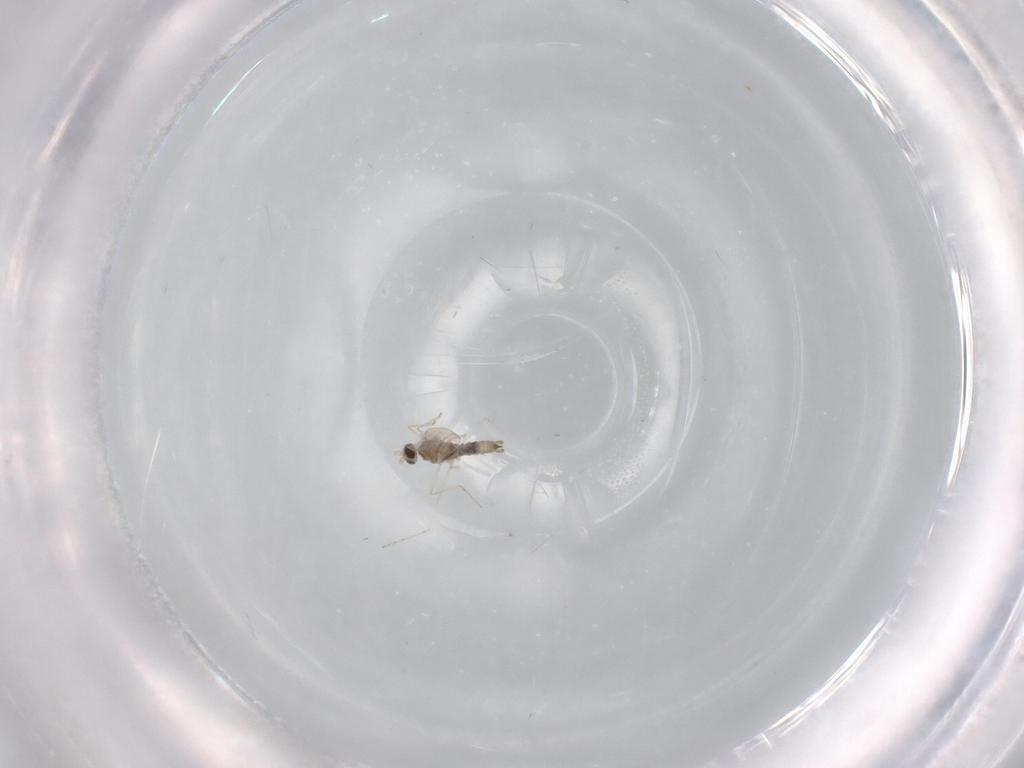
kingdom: Animalia
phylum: Arthropoda
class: Insecta
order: Diptera
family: Cecidomyiidae
